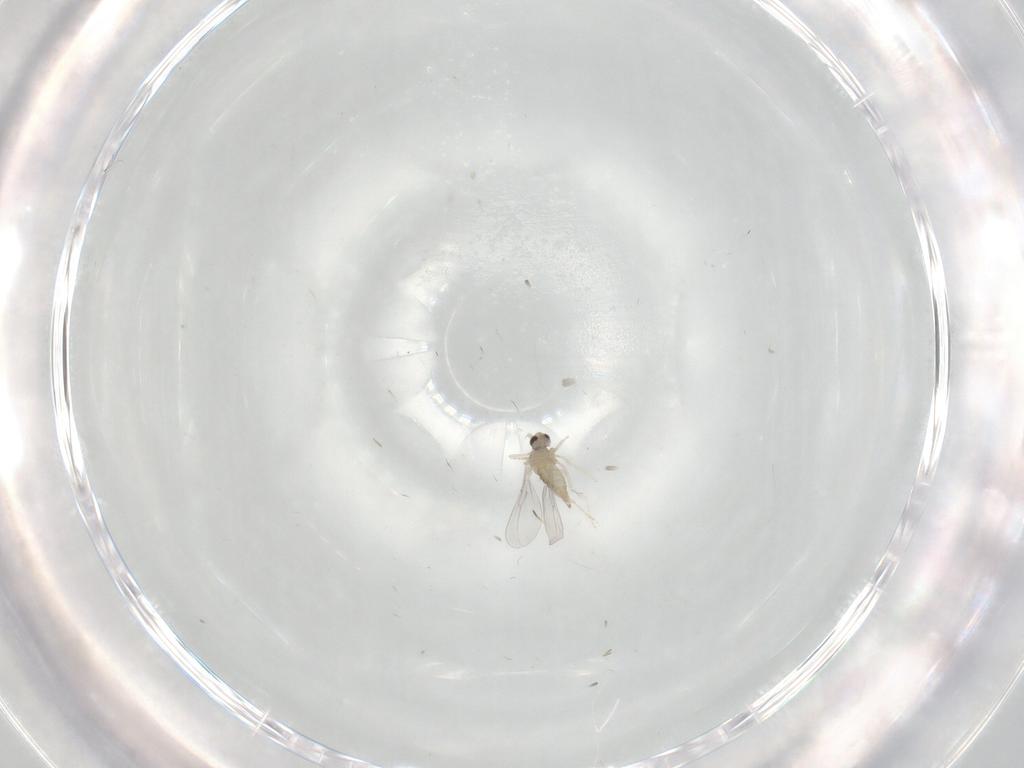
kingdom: Animalia
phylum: Arthropoda
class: Insecta
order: Diptera
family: Cecidomyiidae
